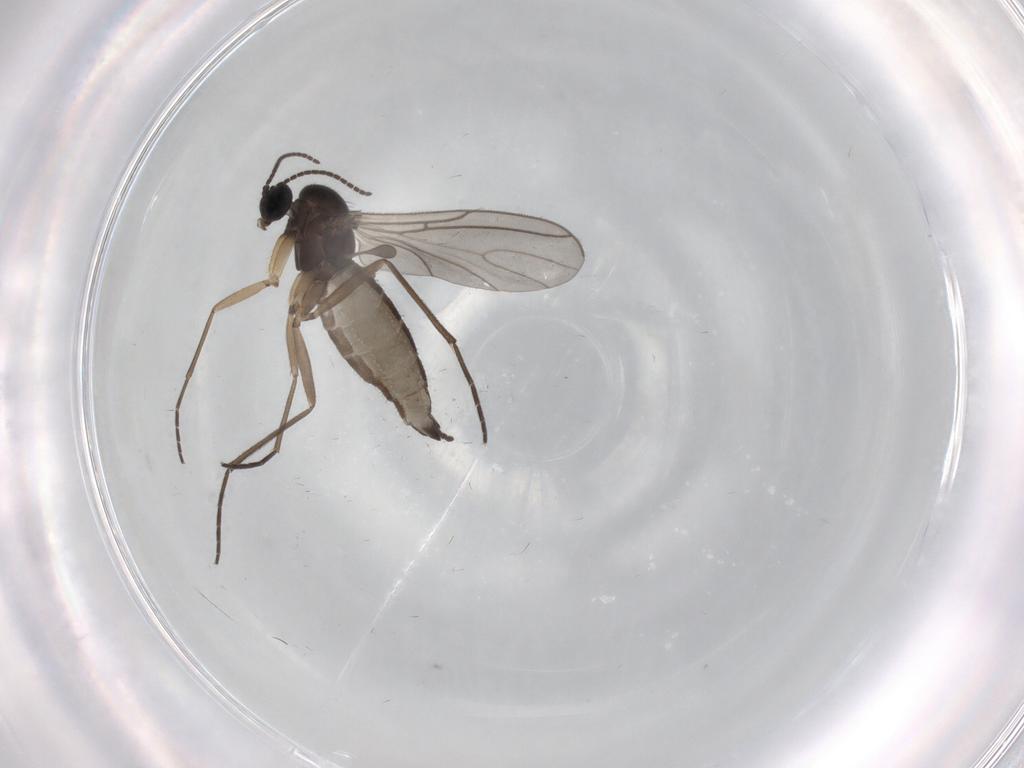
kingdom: Animalia
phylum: Arthropoda
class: Insecta
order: Diptera
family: Sciaridae
